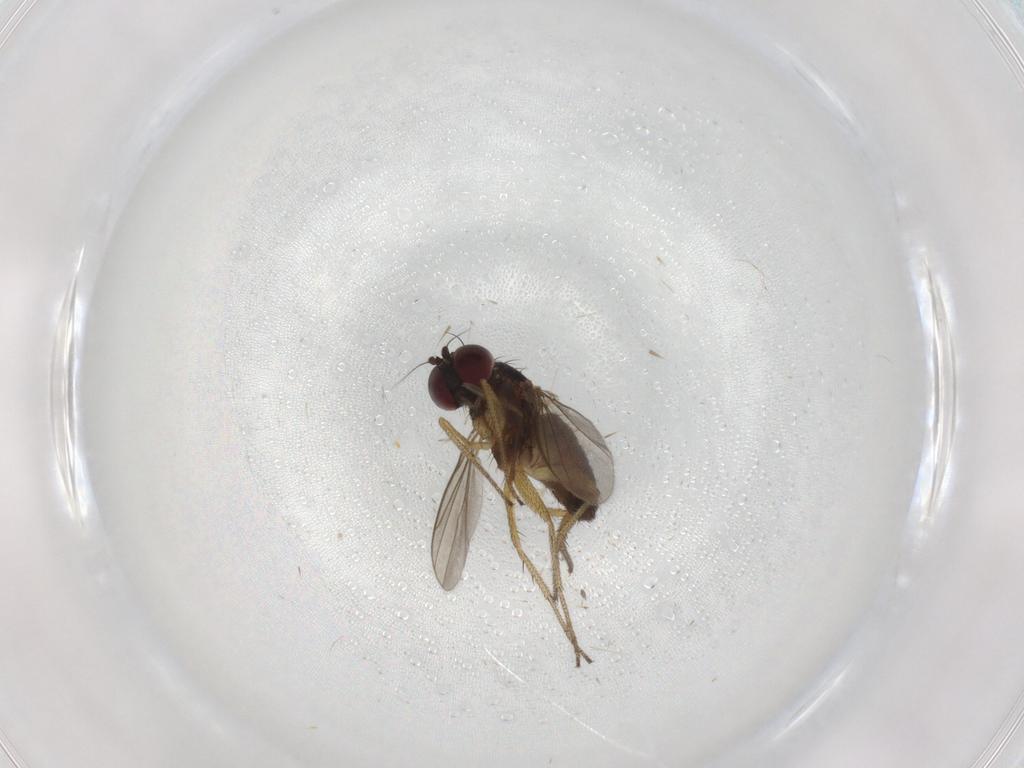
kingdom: Animalia
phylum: Arthropoda
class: Insecta
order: Diptera
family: Dolichopodidae
